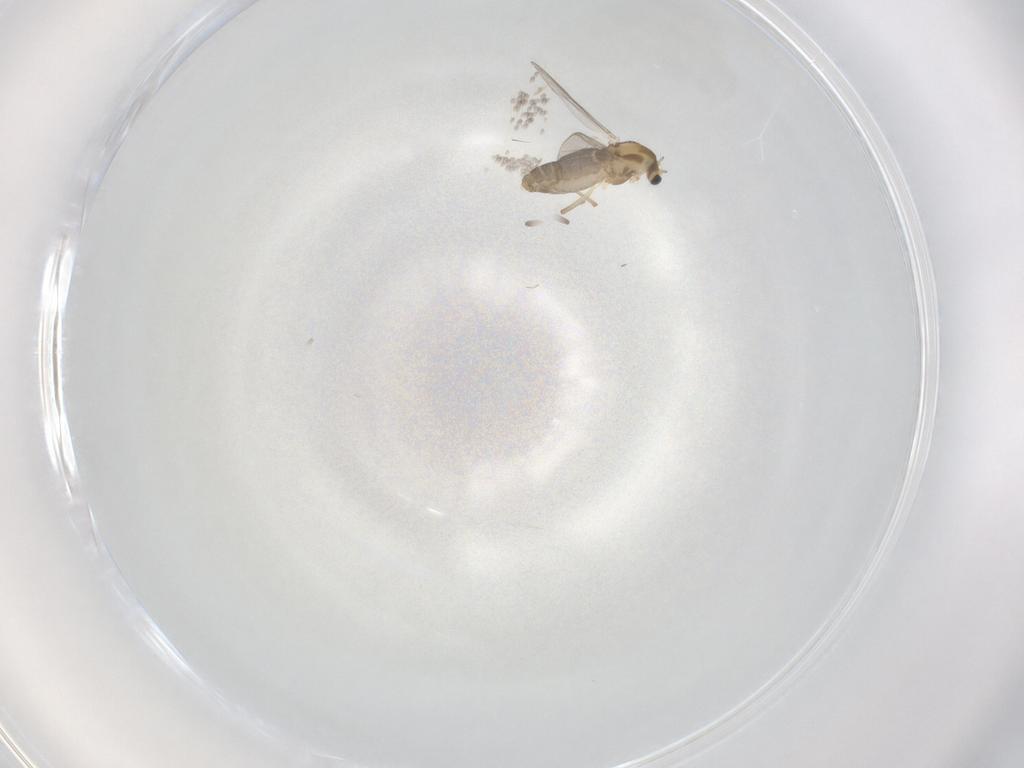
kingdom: Animalia
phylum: Arthropoda
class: Insecta
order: Diptera
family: Chironomidae
